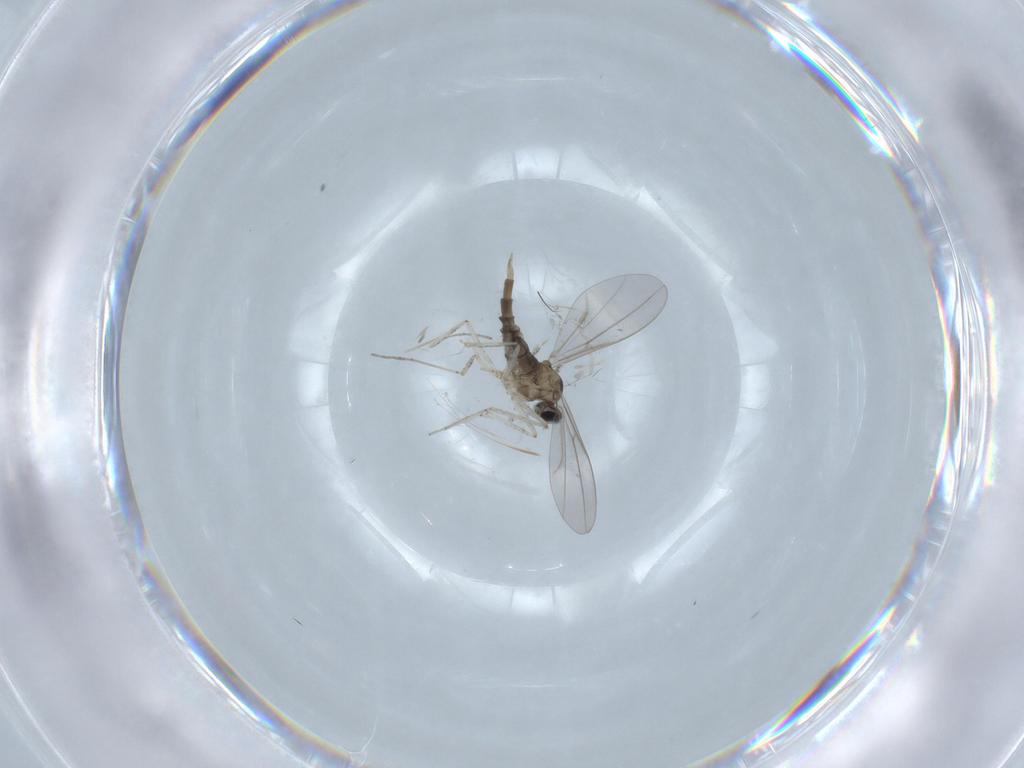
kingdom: Animalia
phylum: Arthropoda
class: Insecta
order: Diptera
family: Cecidomyiidae
